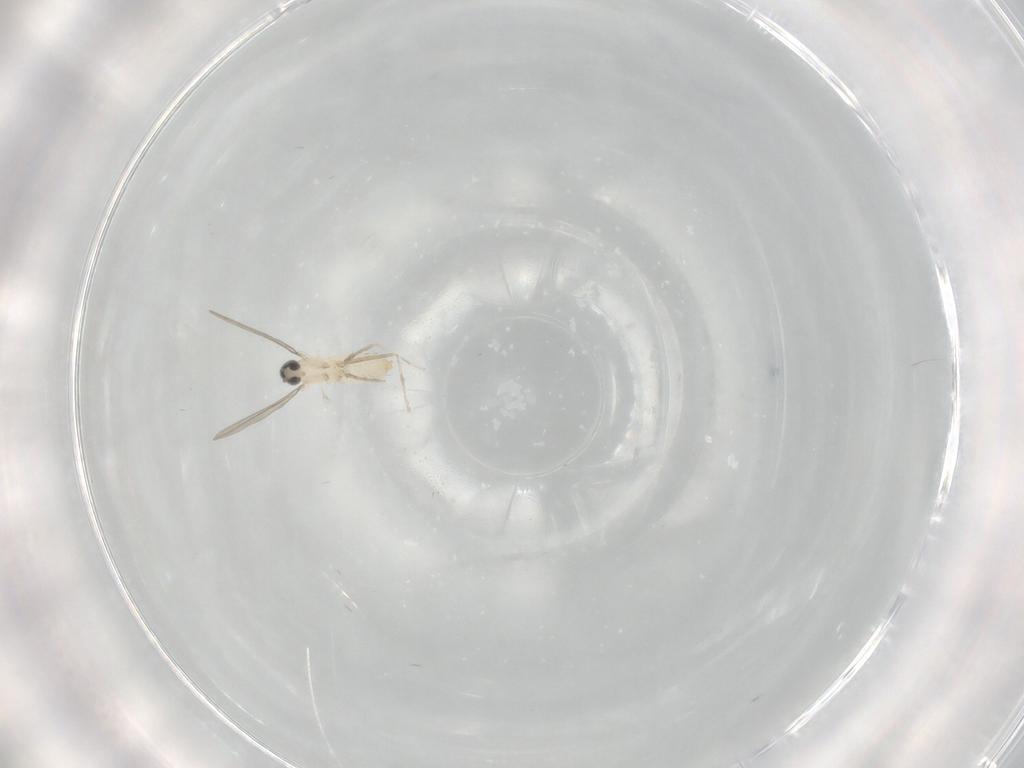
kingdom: Animalia
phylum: Arthropoda
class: Insecta
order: Diptera
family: Cecidomyiidae
